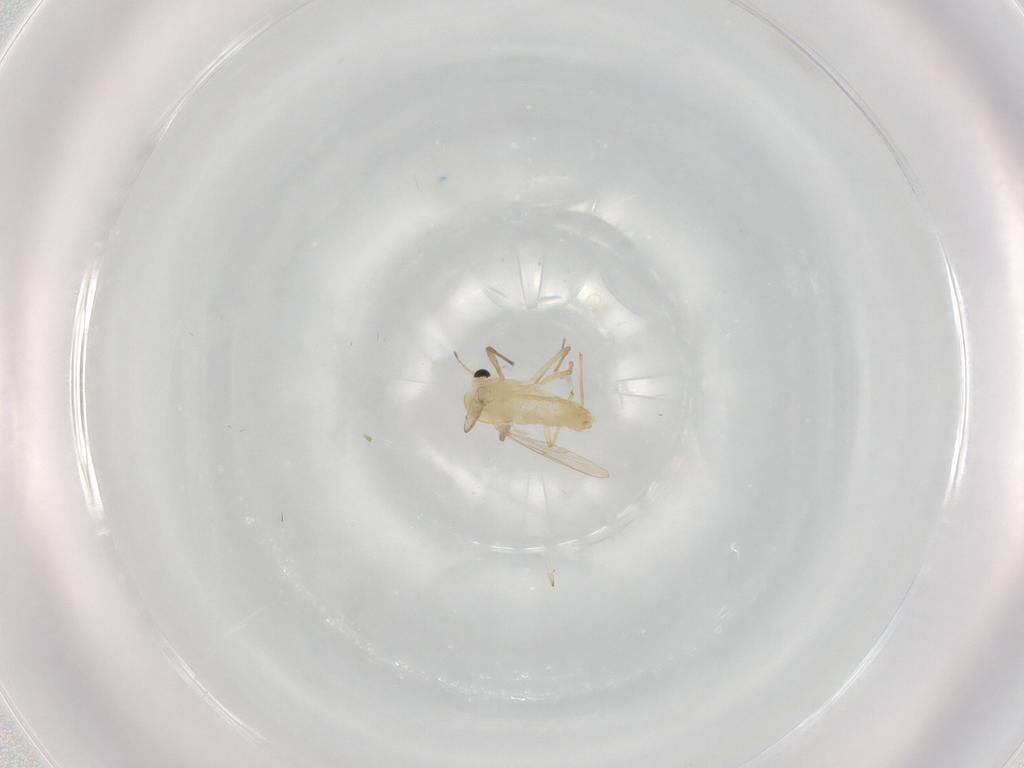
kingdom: Animalia
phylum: Arthropoda
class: Insecta
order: Diptera
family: Chironomidae
